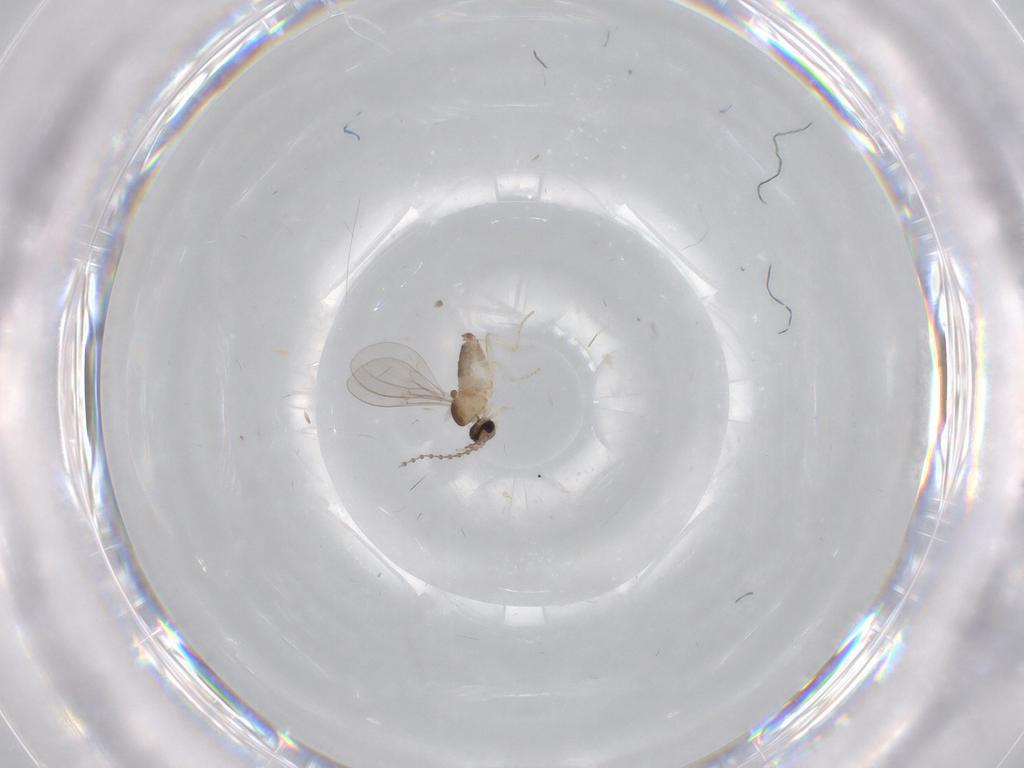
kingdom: Animalia
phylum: Arthropoda
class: Insecta
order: Diptera
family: Cecidomyiidae
